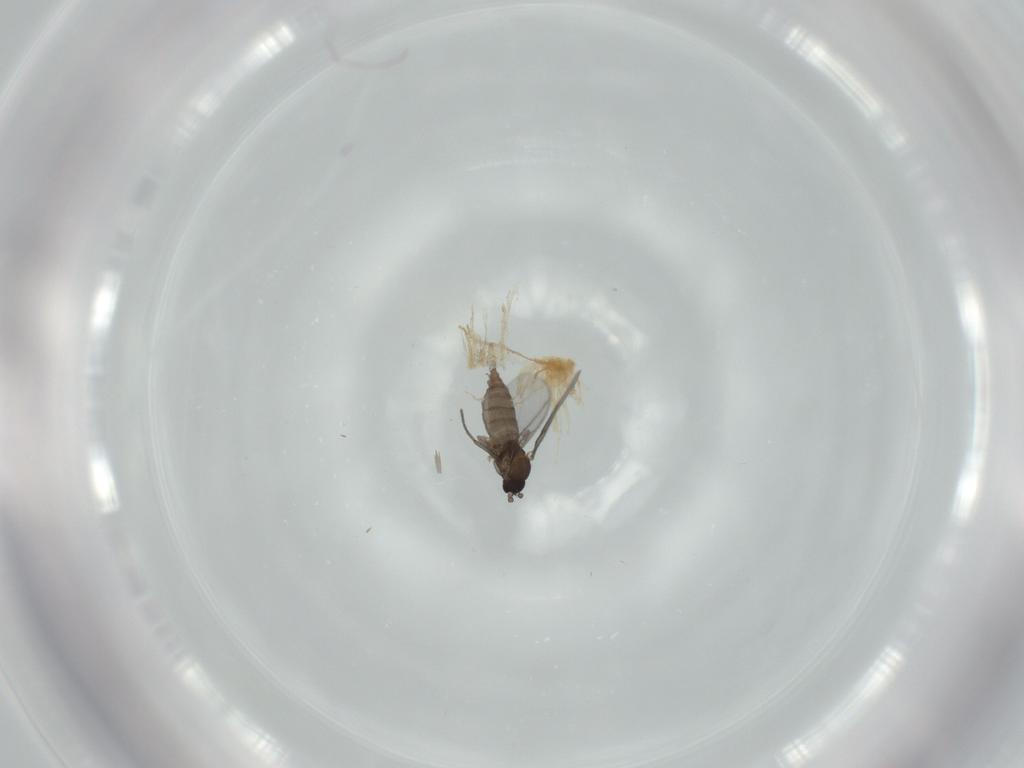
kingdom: Animalia
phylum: Arthropoda
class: Insecta
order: Diptera
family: Sciaridae
